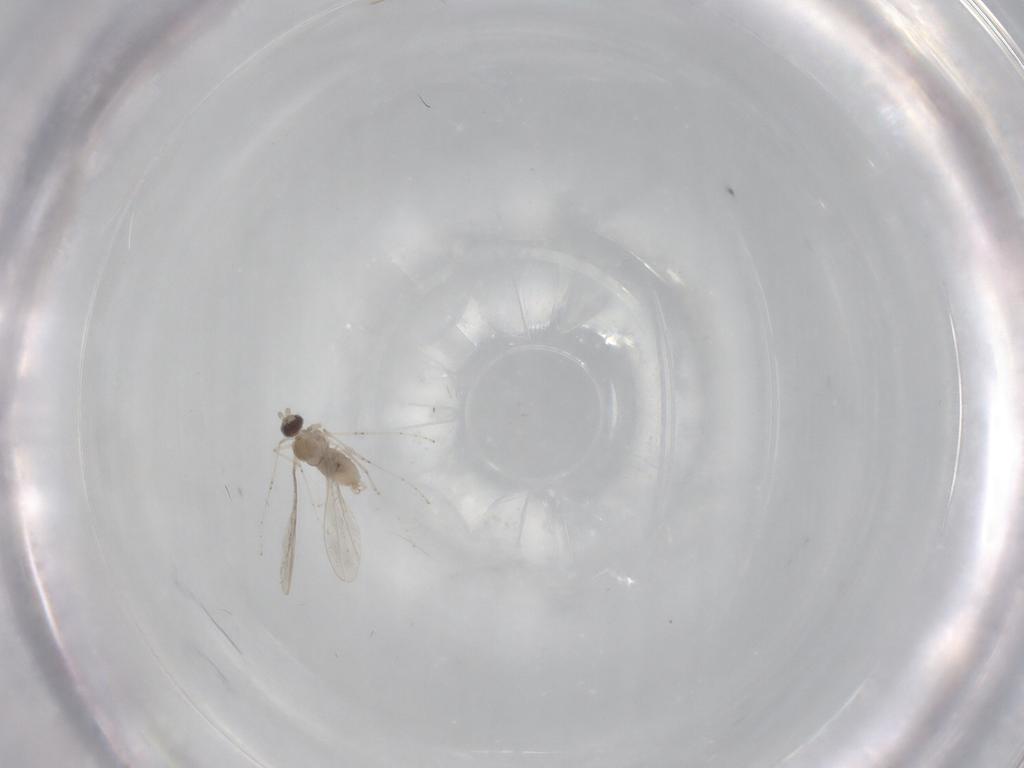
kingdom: Animalia
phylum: Arthropoda
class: Insecta
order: Diptera
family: Cecidomyiidae
